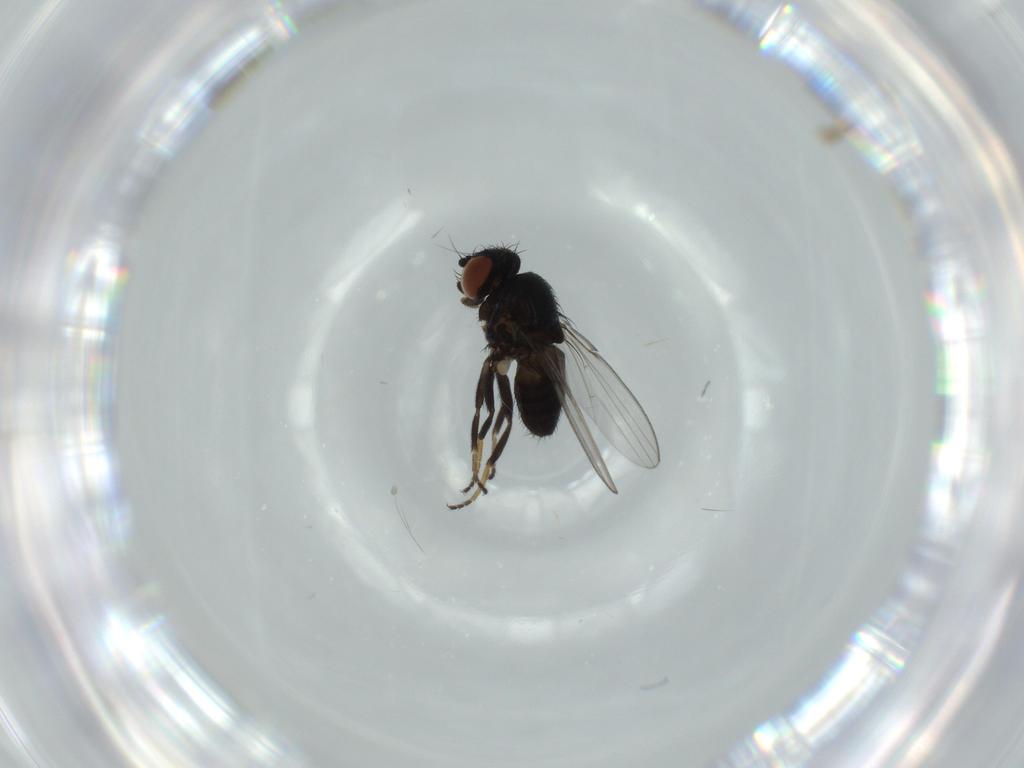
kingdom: Animalia
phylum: Arthropoda
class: Insecta
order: Diptera
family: Milichiidae
